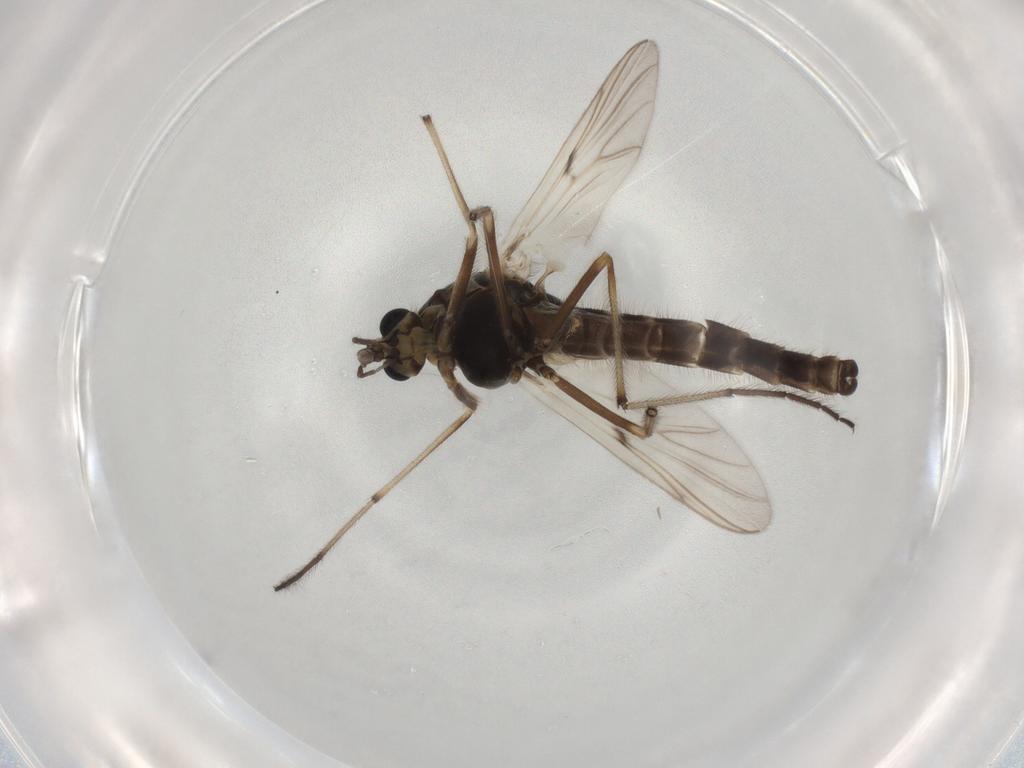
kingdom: Animalia
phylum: Arthropoda
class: Insecta
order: Diptera
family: Chironomidae
